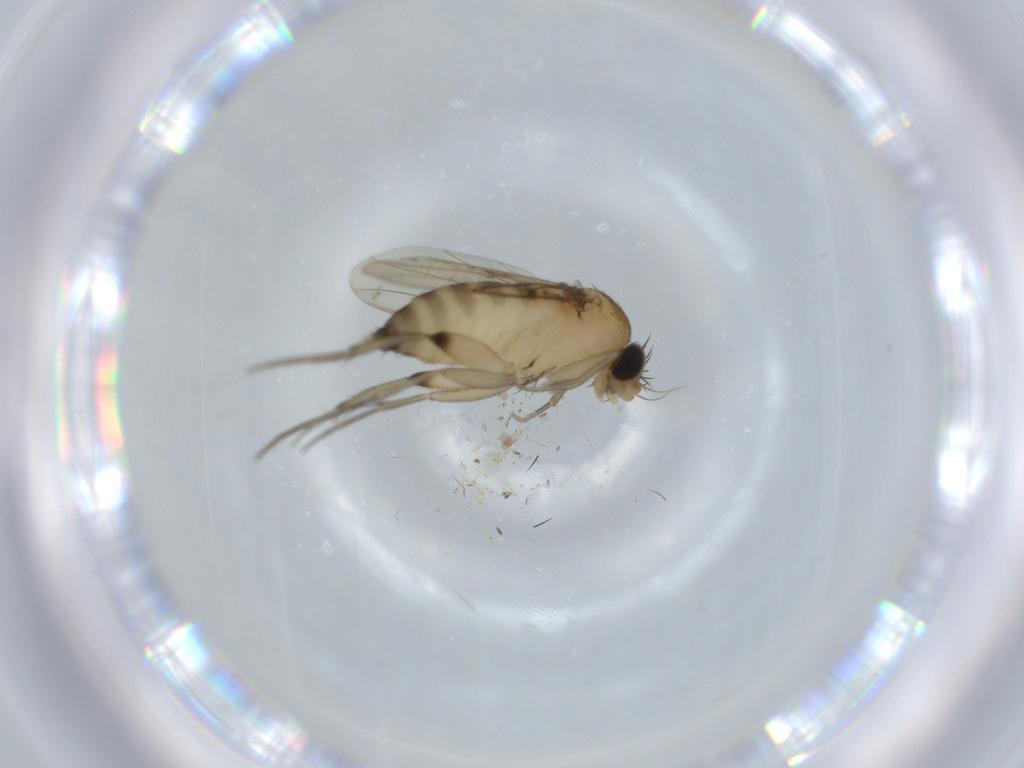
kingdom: Animalia
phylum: Arthropoda
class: Insecta
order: Diptera
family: Phoridae
